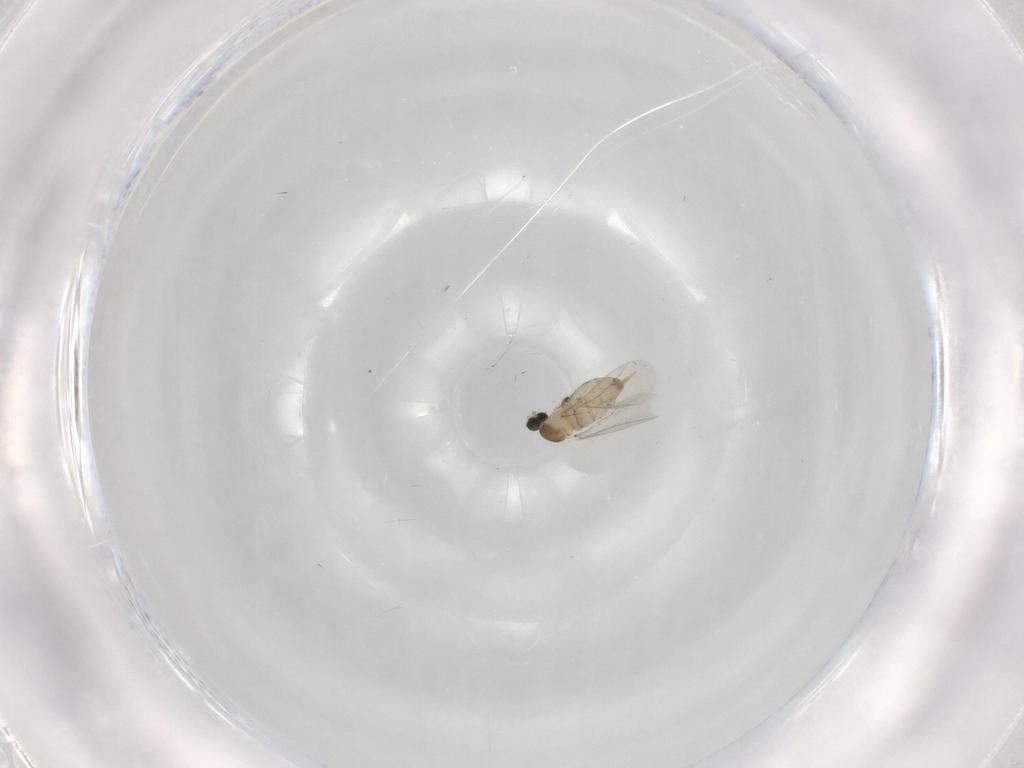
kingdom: Animalia
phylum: Arthropoda
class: Insecta
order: Diptera
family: Cecidomyiidae
